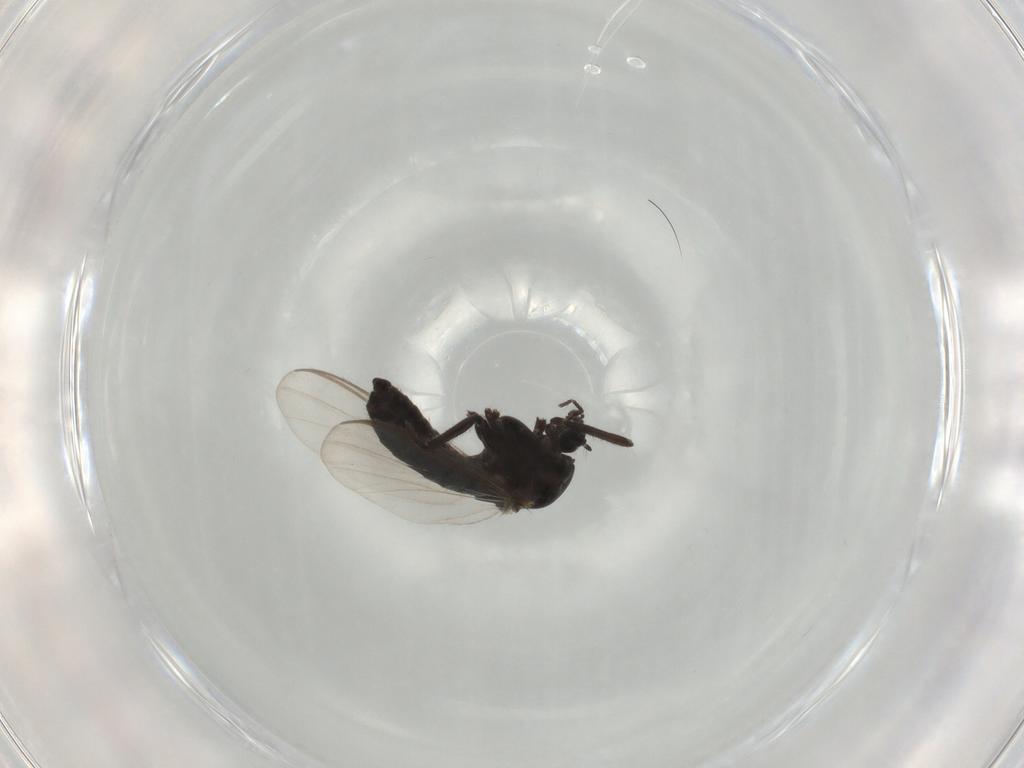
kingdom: Animalia
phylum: Arthropoda
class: Insecta
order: Diptera
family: Chironomidae
